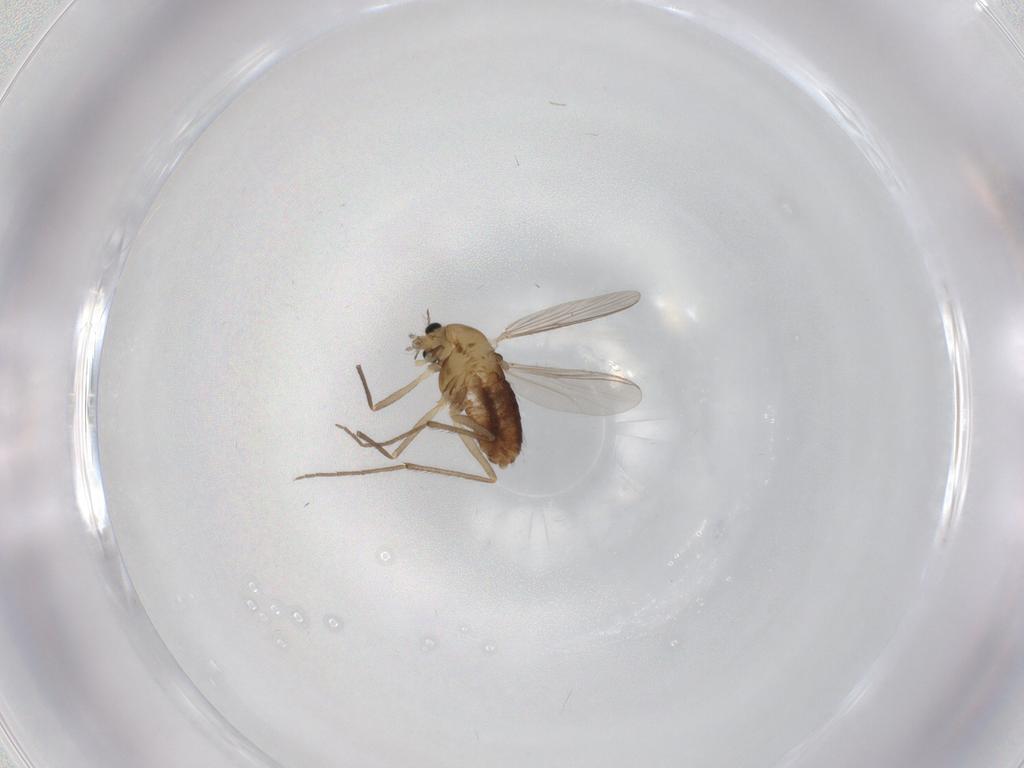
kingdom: Animalia
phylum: Arthropoda
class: Insecta
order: Diptera
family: Chironomidae
